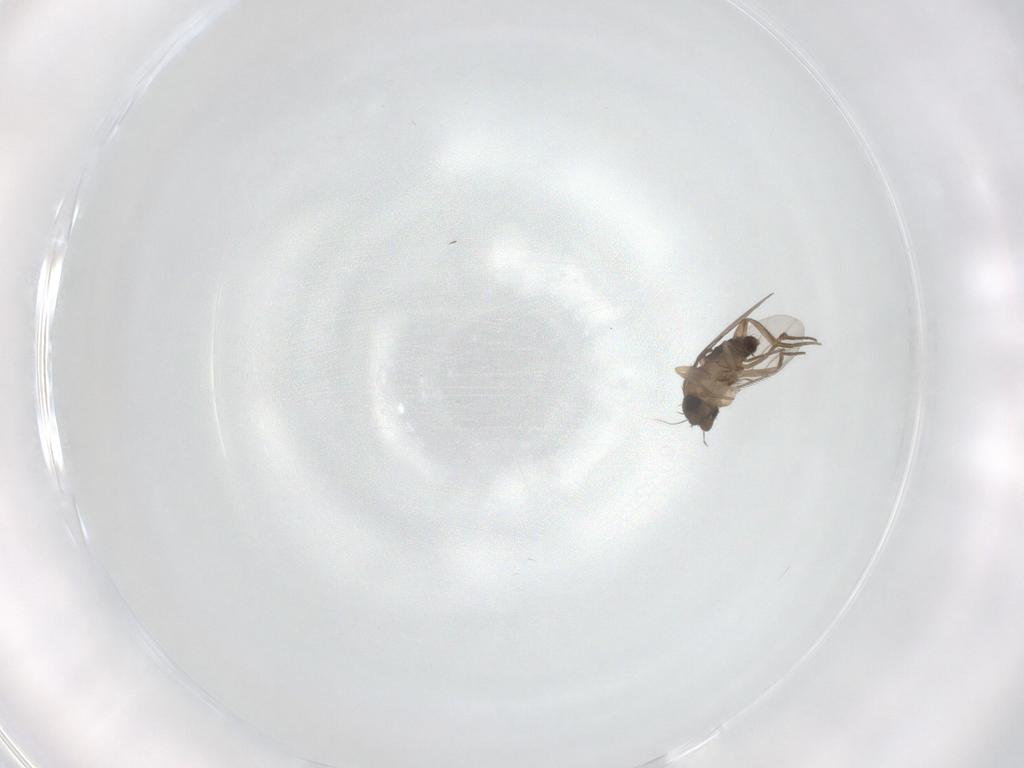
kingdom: Animalia
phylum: Arthropoda
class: Insecta
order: Diptera
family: Phoridae
